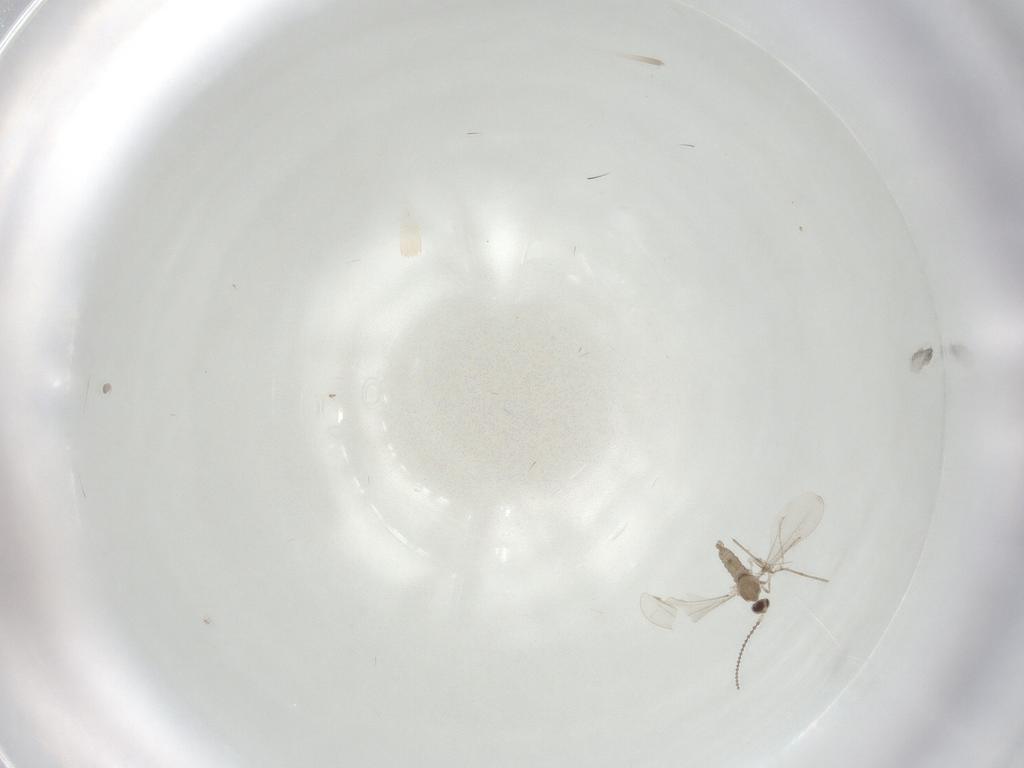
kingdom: Animalia
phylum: Arthropoda
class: Insecta
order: Diptera
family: Cecidomyiidae
